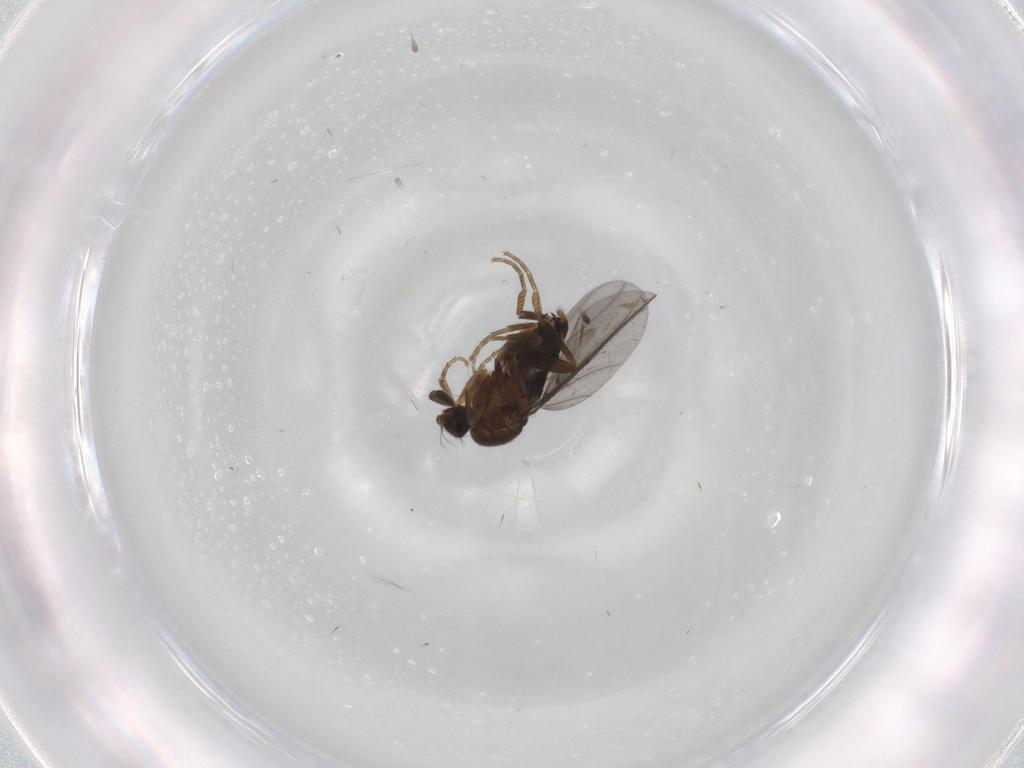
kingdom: Animalia
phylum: Arthropoda
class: Insecta
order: Diptera
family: Phoridae
